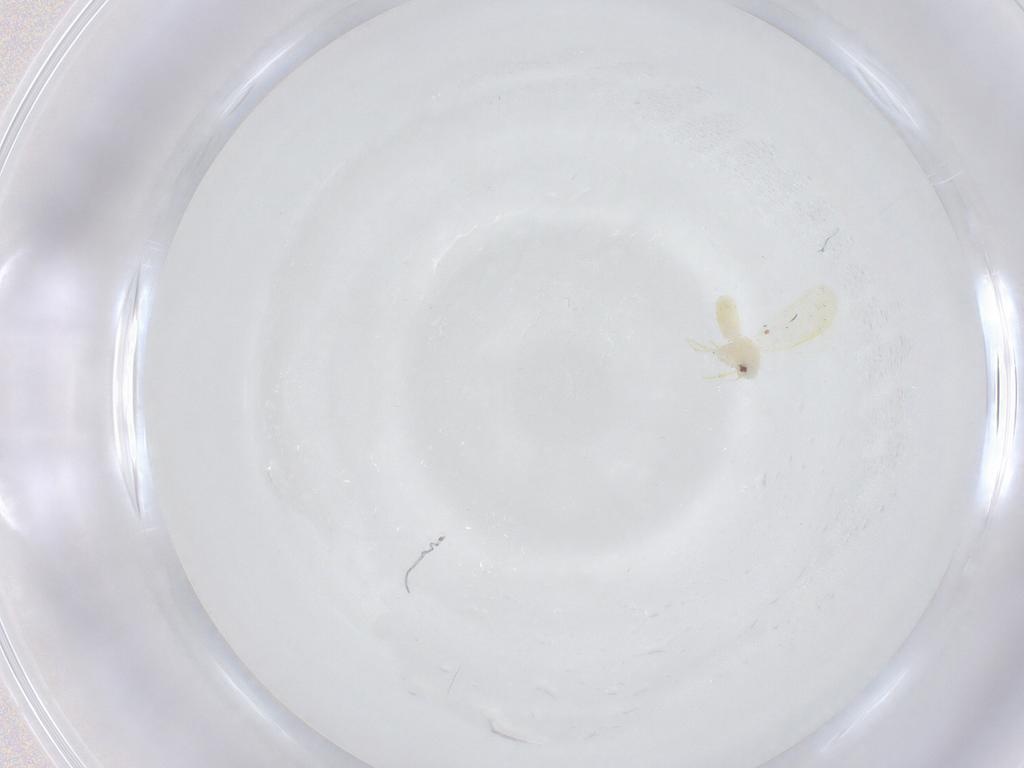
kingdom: Animalia
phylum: Arthropoda
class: Insecta
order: Hemiptera
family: Aleyrodidae
